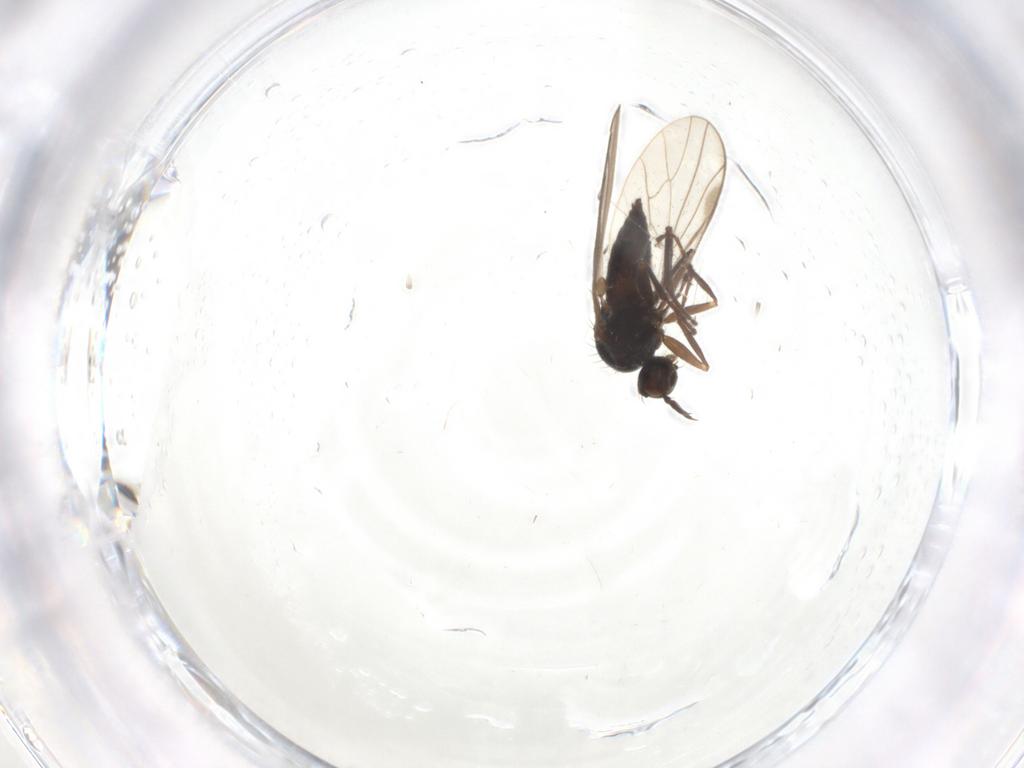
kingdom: Animalia
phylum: Arthropoda
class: Insecta
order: Diptera
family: Hybotidae
